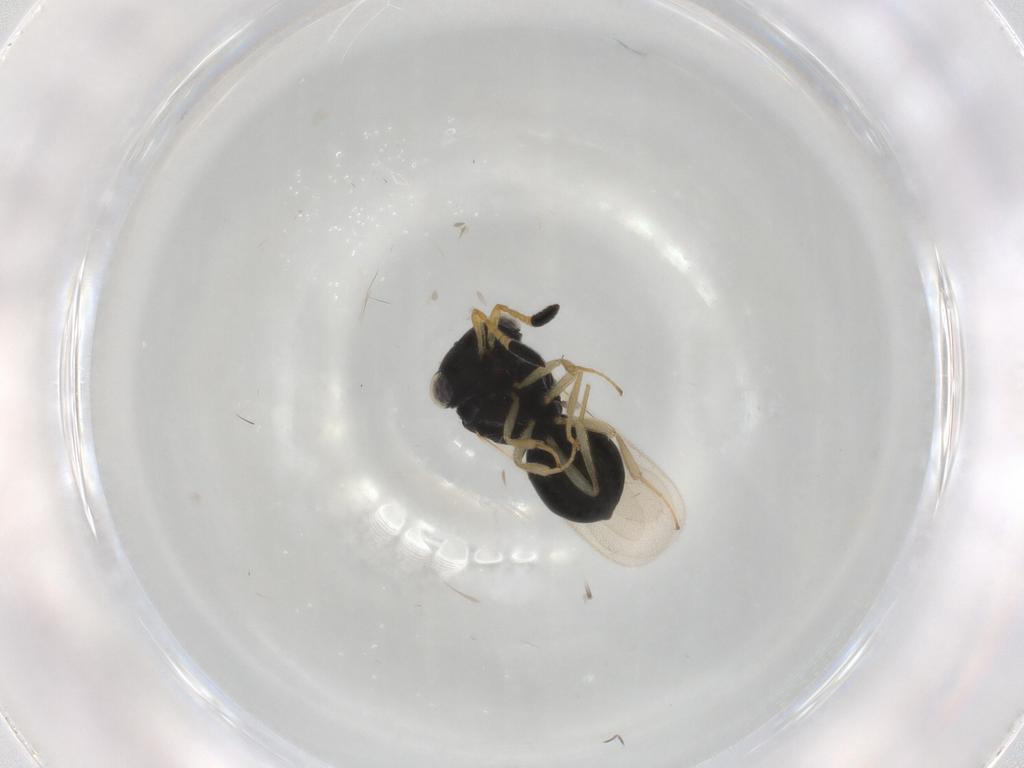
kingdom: Animalia
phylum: Arthropoda
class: Insecta
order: Hymenoptera
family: Scelionidae
